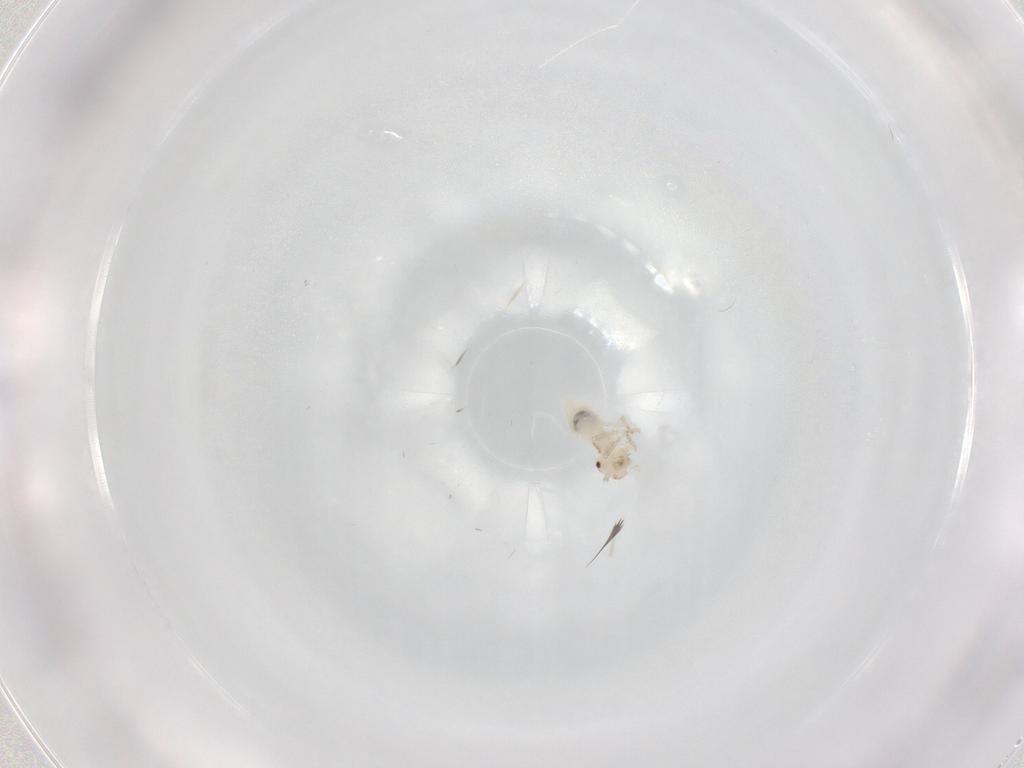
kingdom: Animalia
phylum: Arthropoda
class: Insecta
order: Psocodea
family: Amphipsocidae
